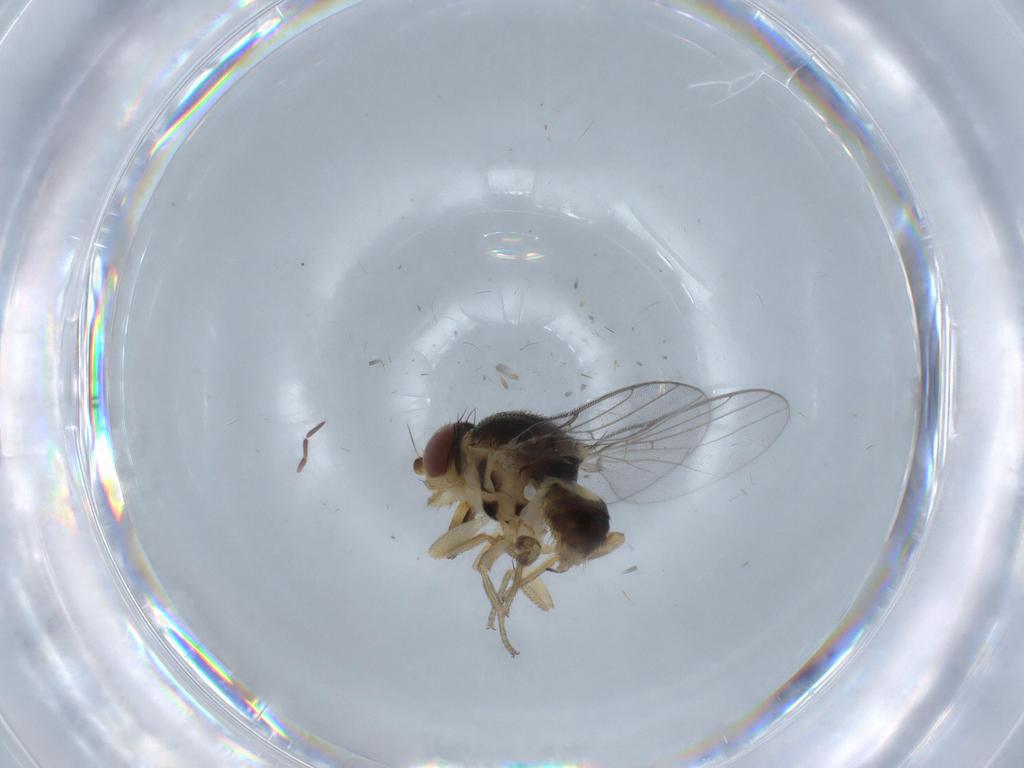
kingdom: Animalia
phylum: Arthropoda
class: Insecta
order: Diptera
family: Chloropidae
